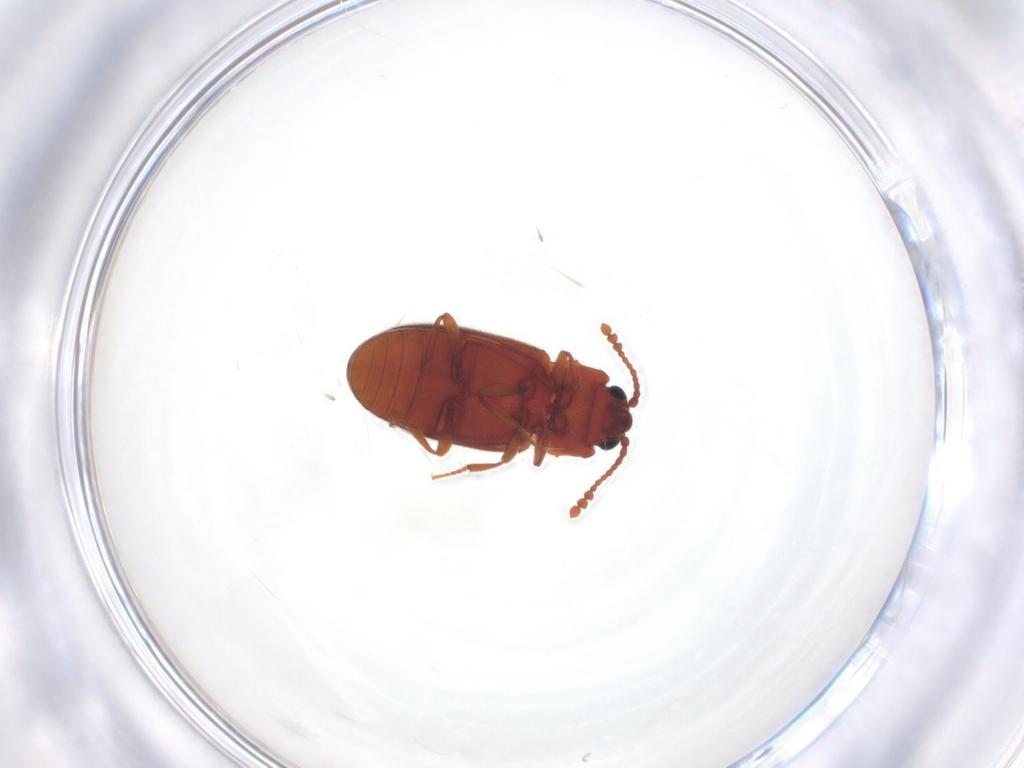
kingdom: Animalia
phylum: Arthropoda
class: Insecta
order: Coleoptera
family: Cryptophagidae
